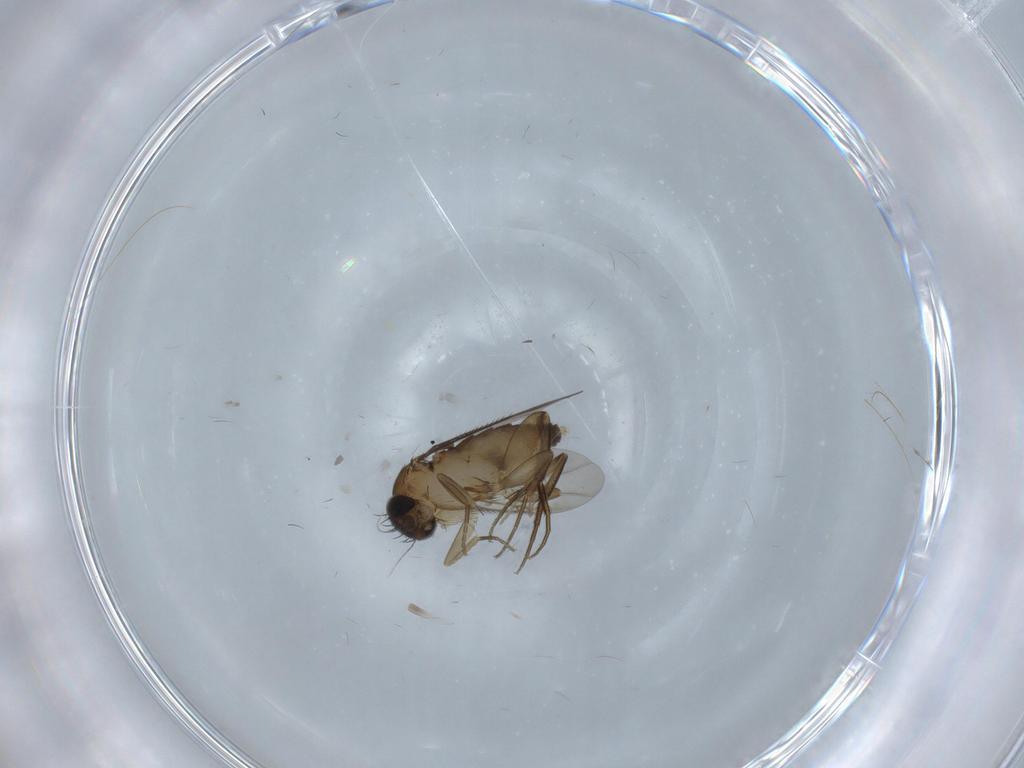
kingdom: Animalia
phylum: Arthropoda
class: Insecta
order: Diptera
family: Phoridae
